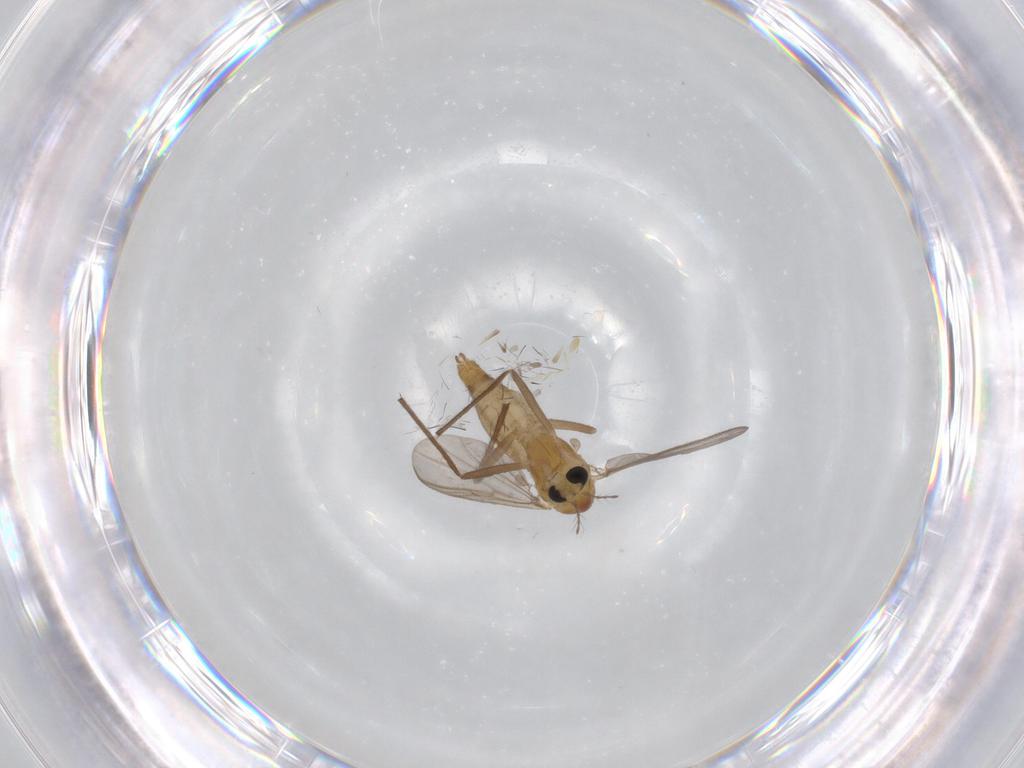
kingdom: Animalia
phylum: Arthropoda
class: Insecta
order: Diptera
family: Chironomidae
